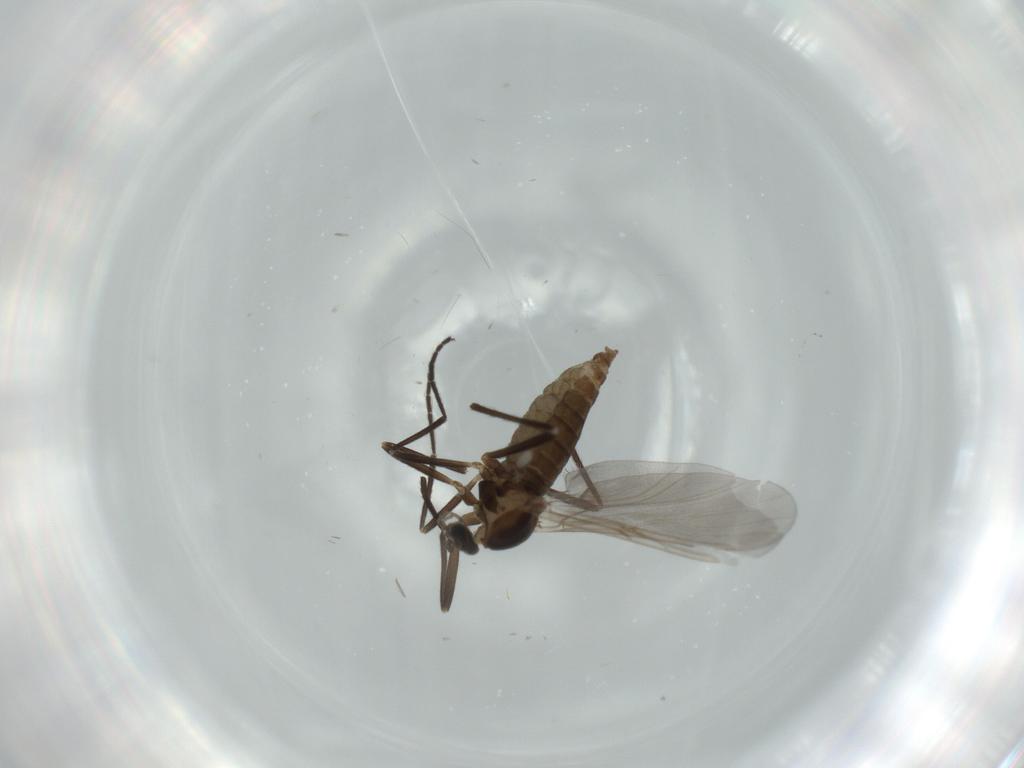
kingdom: Animalia
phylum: Arthropoda
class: Insecta
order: Diptera
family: Cecidomyiidae
